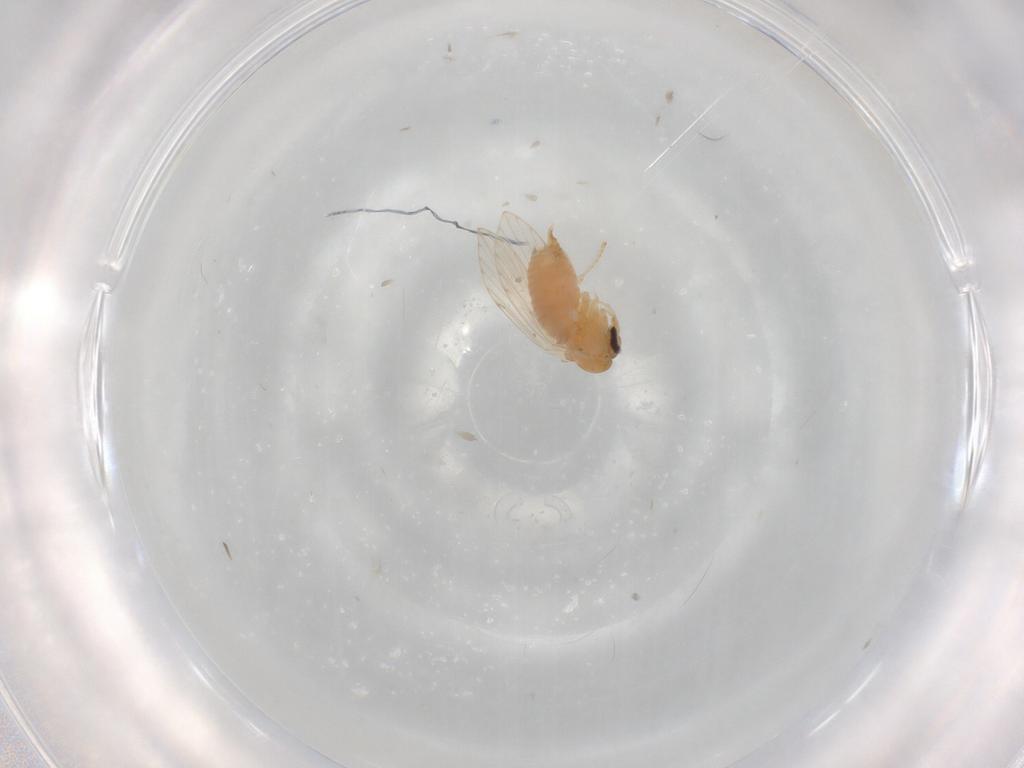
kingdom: Animalia
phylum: Arthropoda
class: Insecta
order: Diptera
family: Psychodidae
